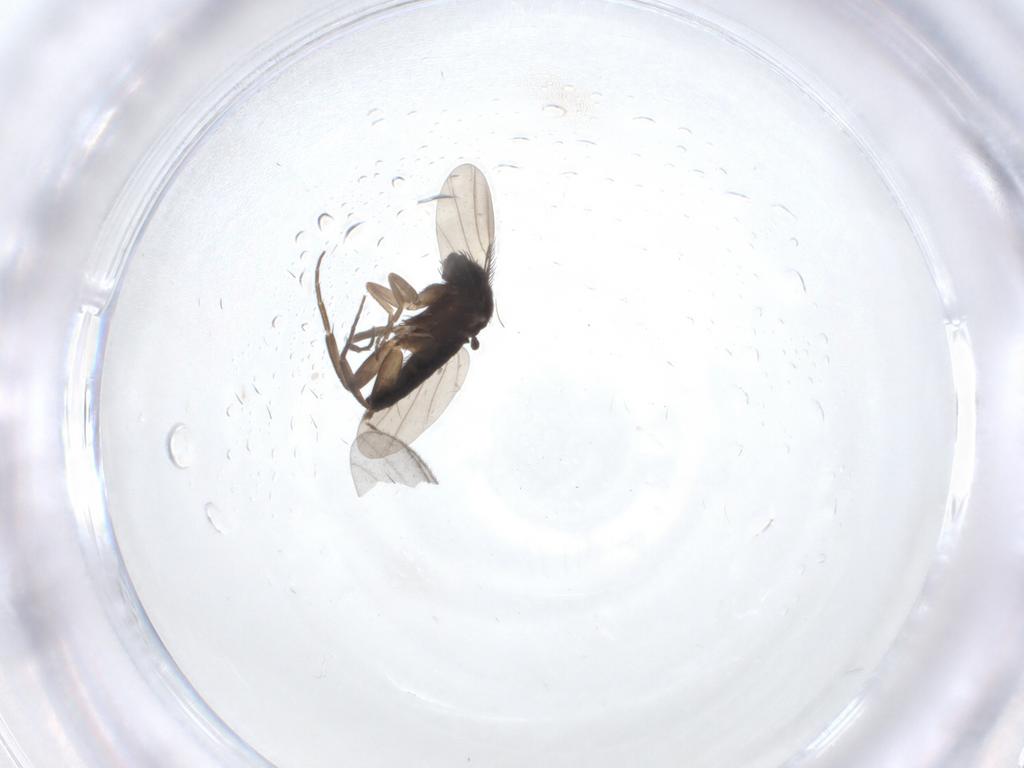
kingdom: Animalia
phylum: Arthropoda
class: Insecta
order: Diptera
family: Phoridae
